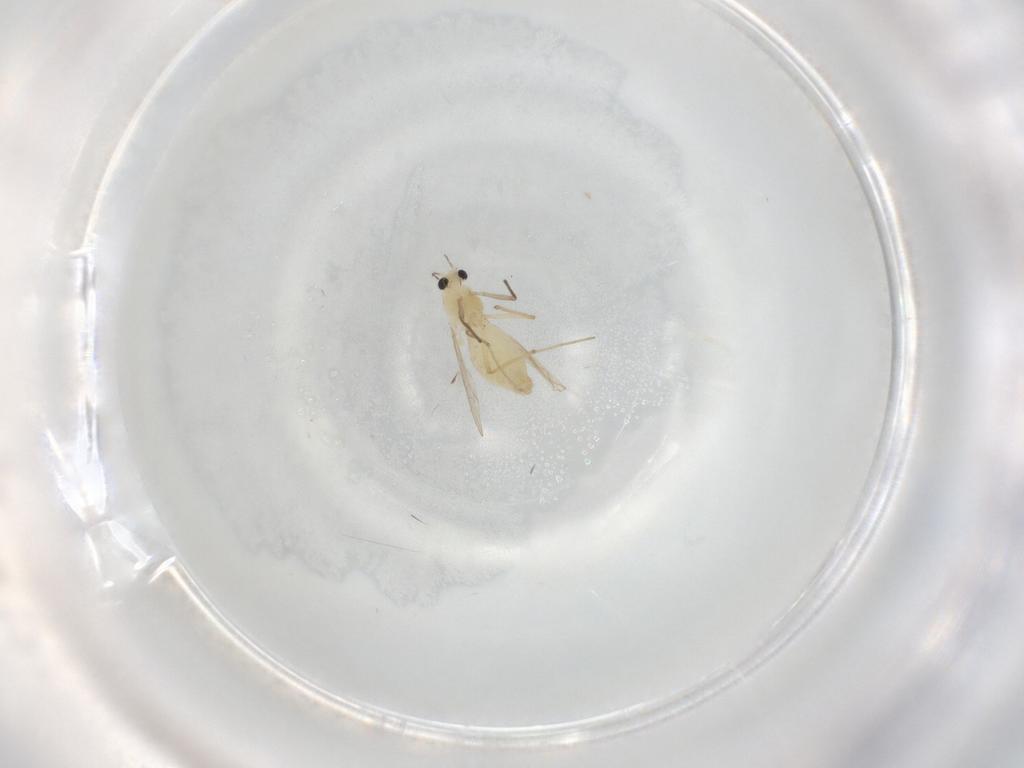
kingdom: Animalia
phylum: Arthropoda
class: Insecta
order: Diptera
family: Chironomidae
